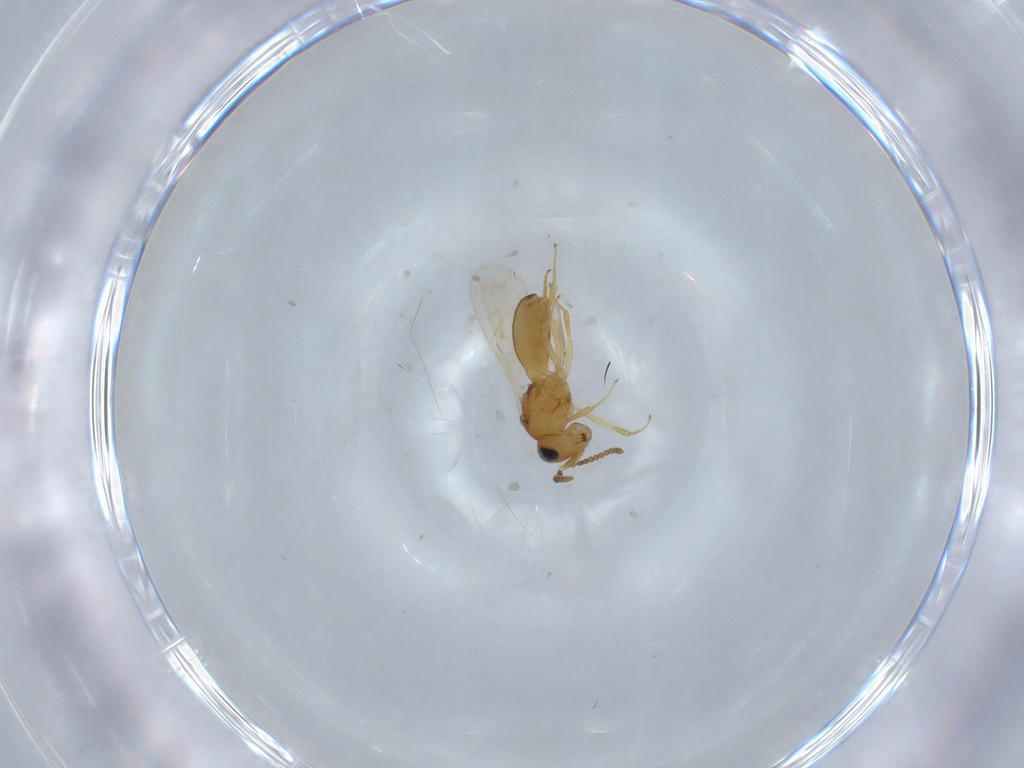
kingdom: Animalia
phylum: Arthropoda
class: Insecta
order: Hymenoptera
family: Scelionidae
